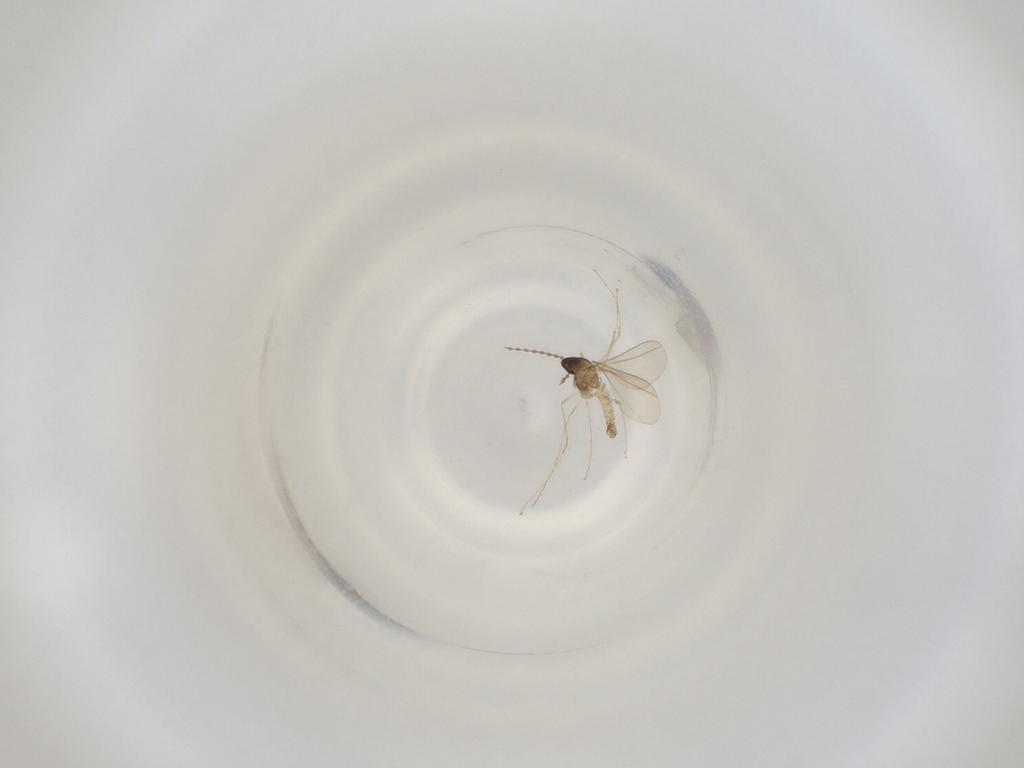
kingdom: Animalia
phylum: Arthropoda
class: Insecta
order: Diptera
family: Cecidomyiidae
